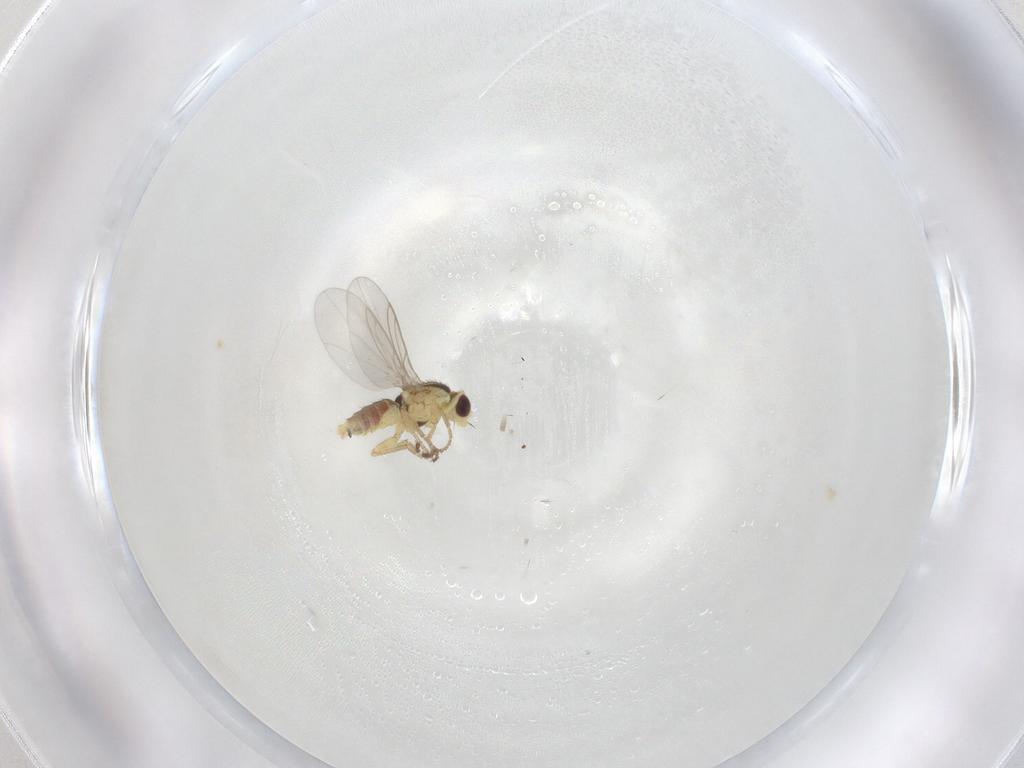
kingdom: Animalia
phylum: Arthropoda
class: Insecta
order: Diptera
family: Agromyzidae
